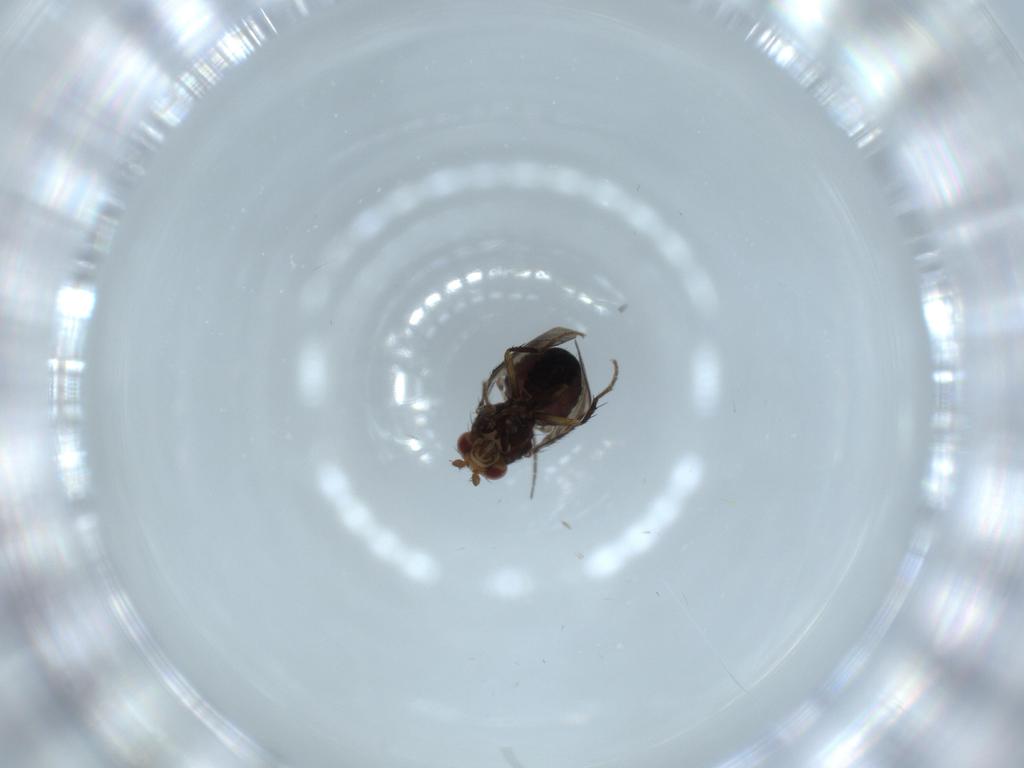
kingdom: Animalia
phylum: Arthropoda
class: Insecta
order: Diptera
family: Sphaeroceridae
